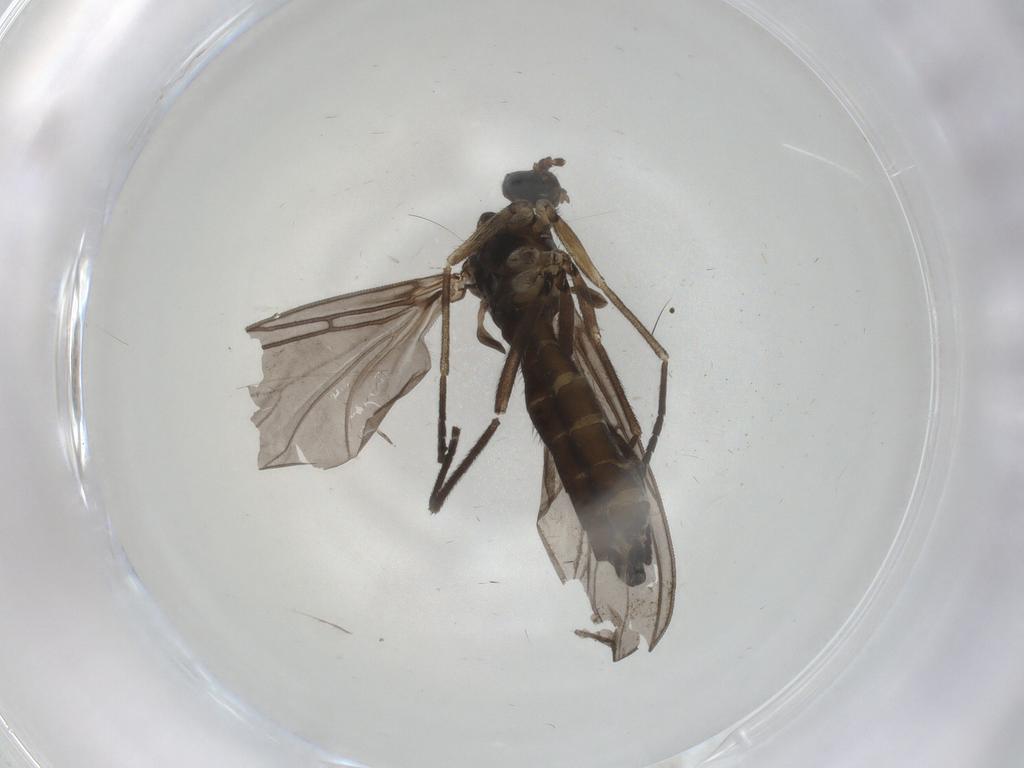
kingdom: Animalia
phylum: Arthropoda
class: Insecta
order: Diptera
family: Sciaridae
